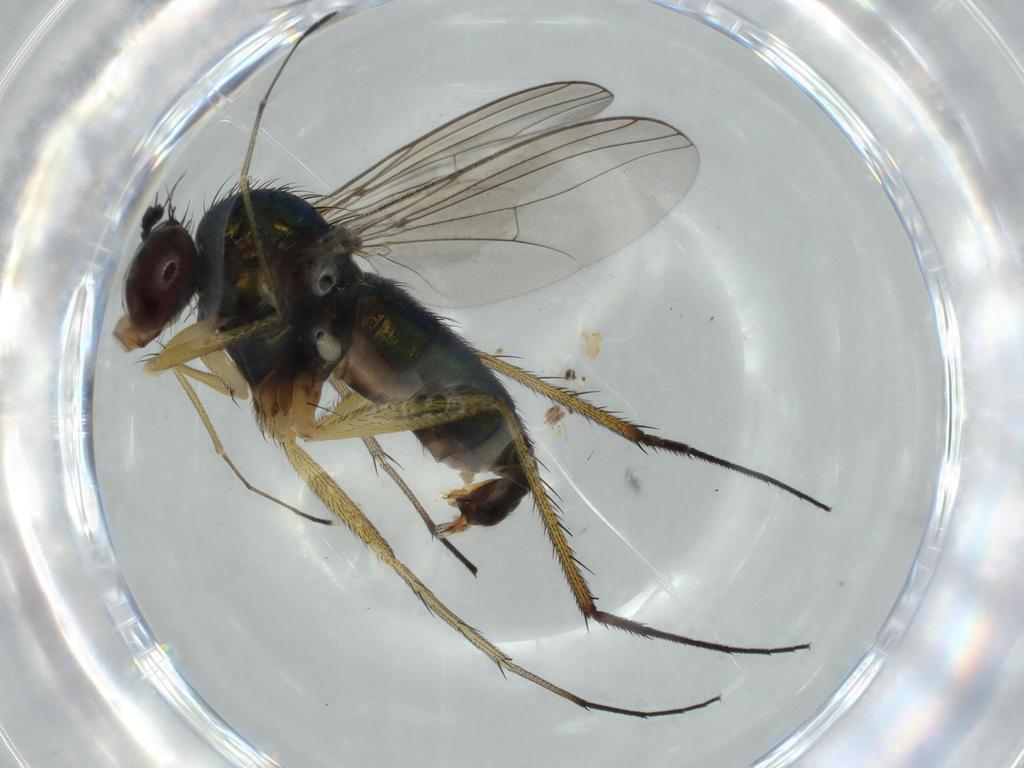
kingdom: Animalia
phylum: Arthropoda
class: Insecta
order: Diptera
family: Dolichopodidae
